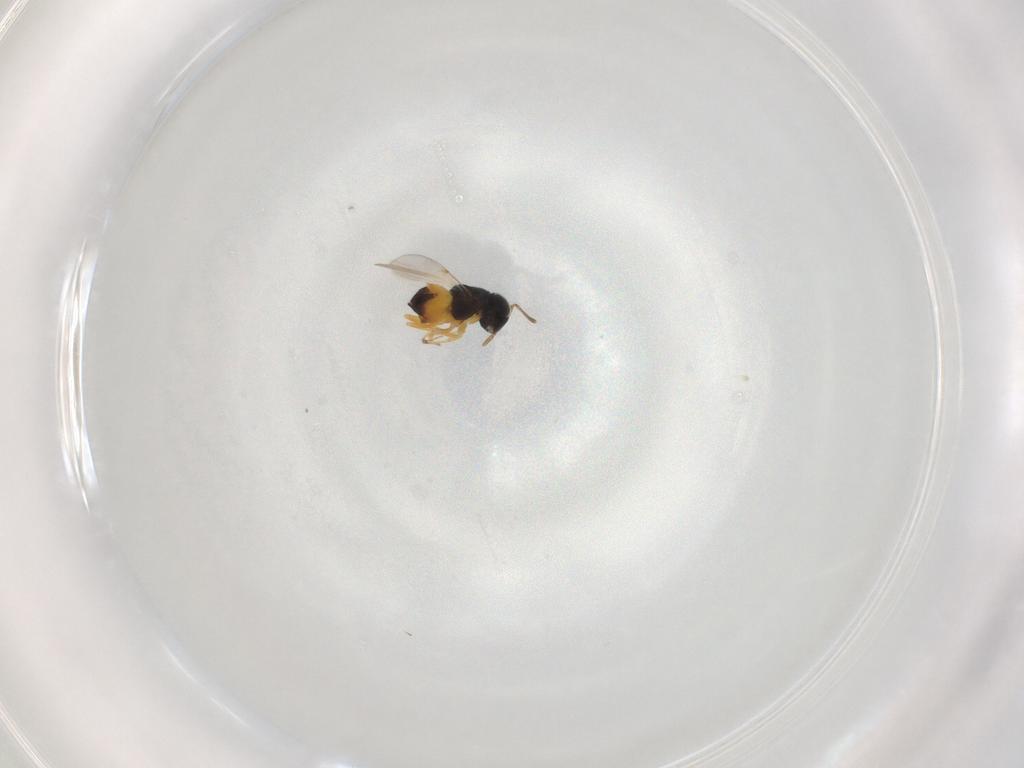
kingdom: Animalia
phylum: Arthropoda
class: Insecta
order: Hymenoptera
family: Encyrtidae
